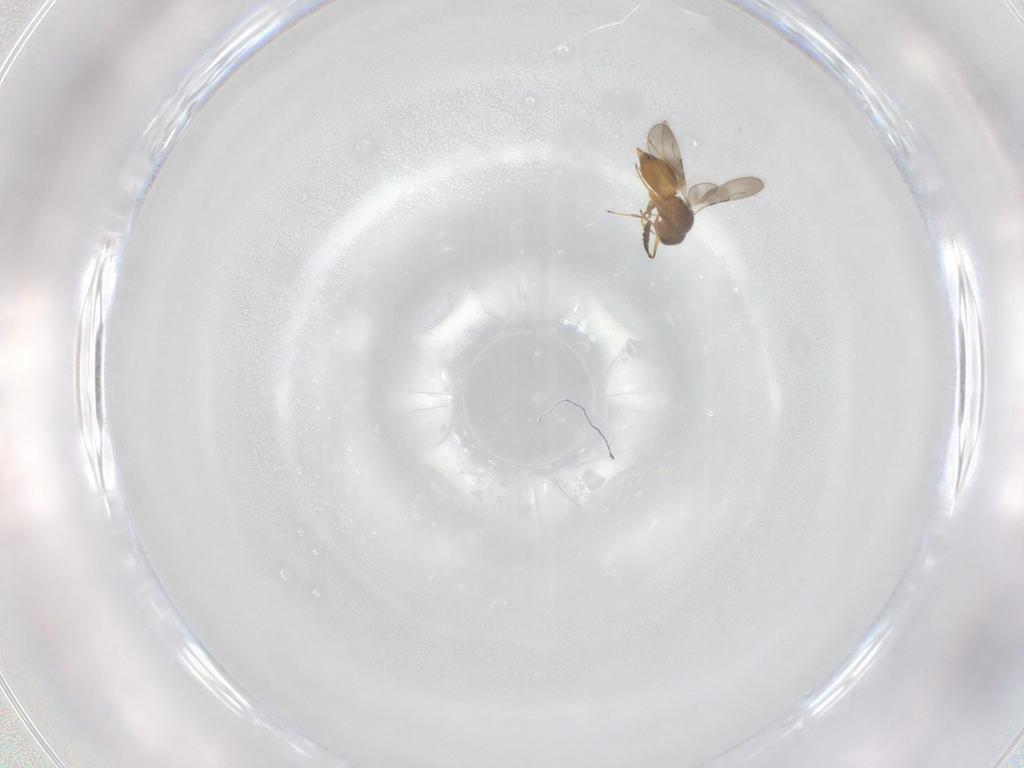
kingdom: Animalia
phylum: Arthropoda
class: Insecta
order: Hymenoptera
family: Ceraphronidae
